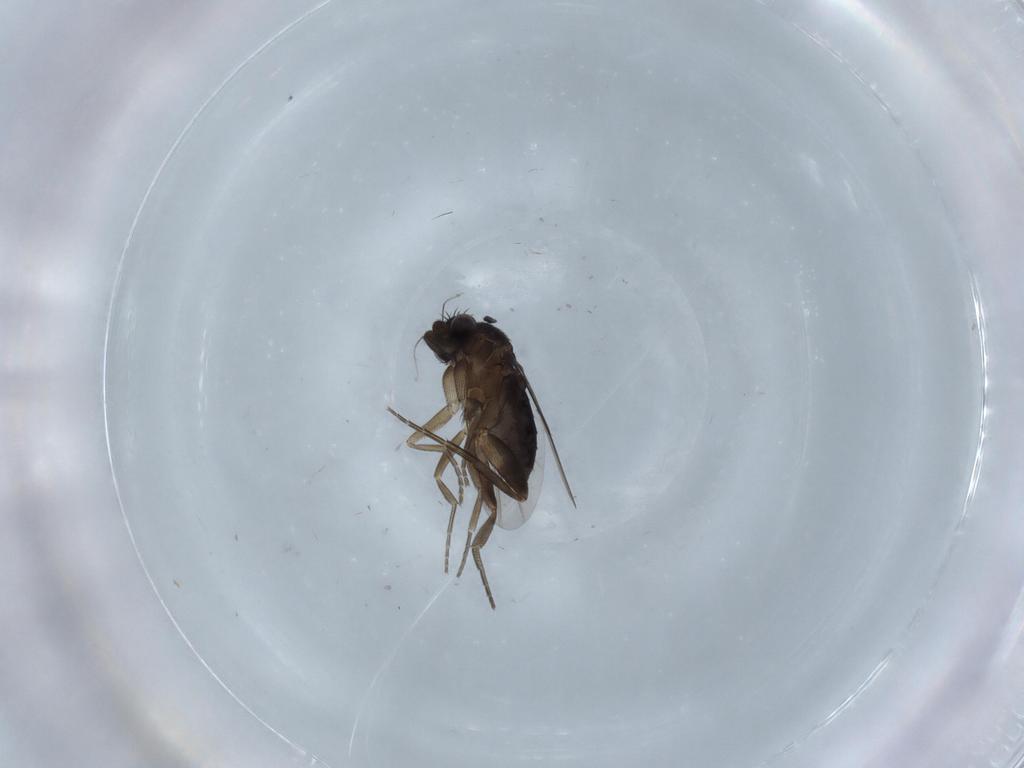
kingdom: Animalia
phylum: Arthropoda
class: Insecta
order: Diptera
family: Phoridae
